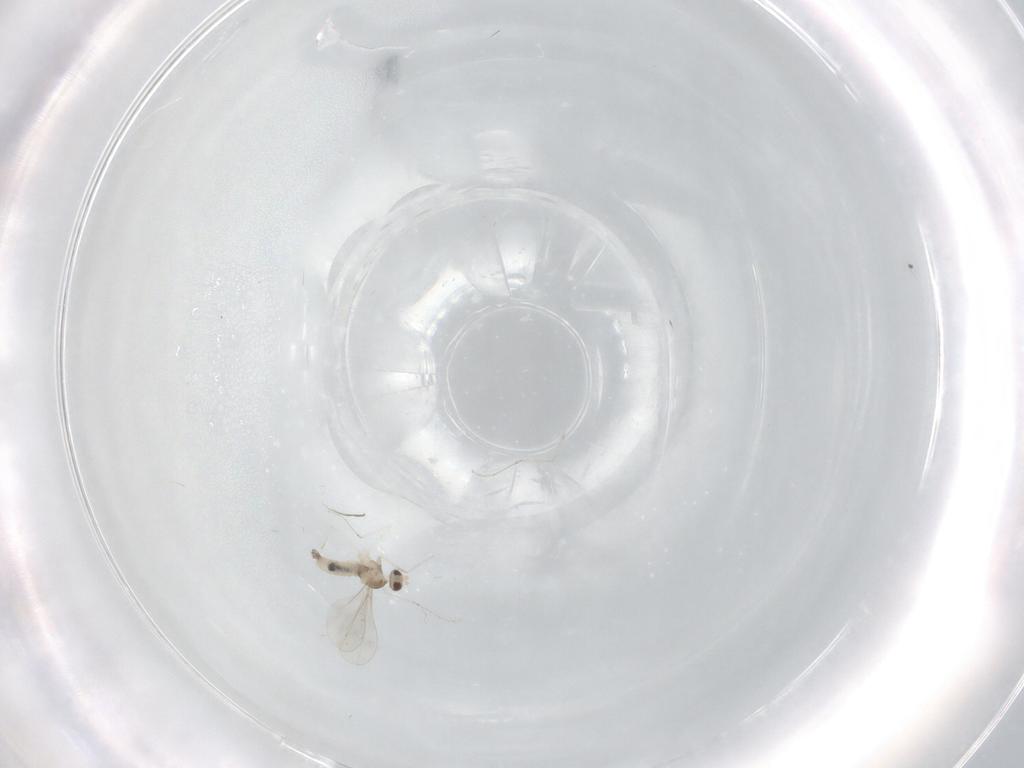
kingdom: Animalia
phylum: Arthropoda
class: Insecta
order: Diptera
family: Cecidomyiidae
